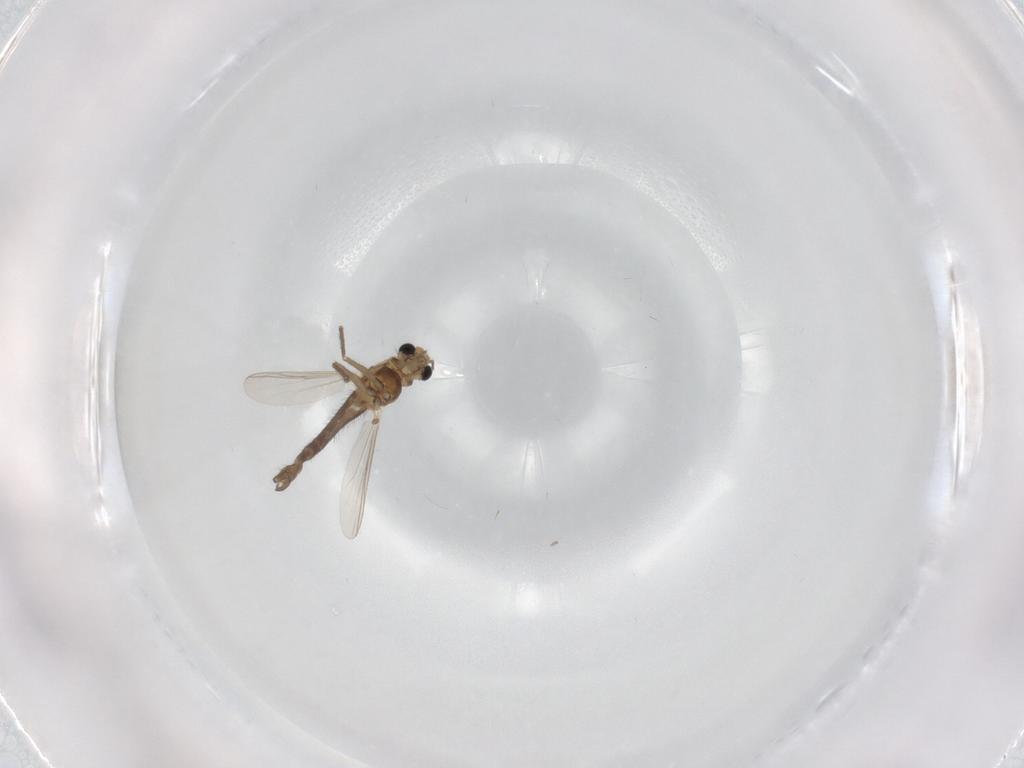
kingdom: Animalia
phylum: Arthropoda
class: Insecta
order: Diptera
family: Chironomidae
